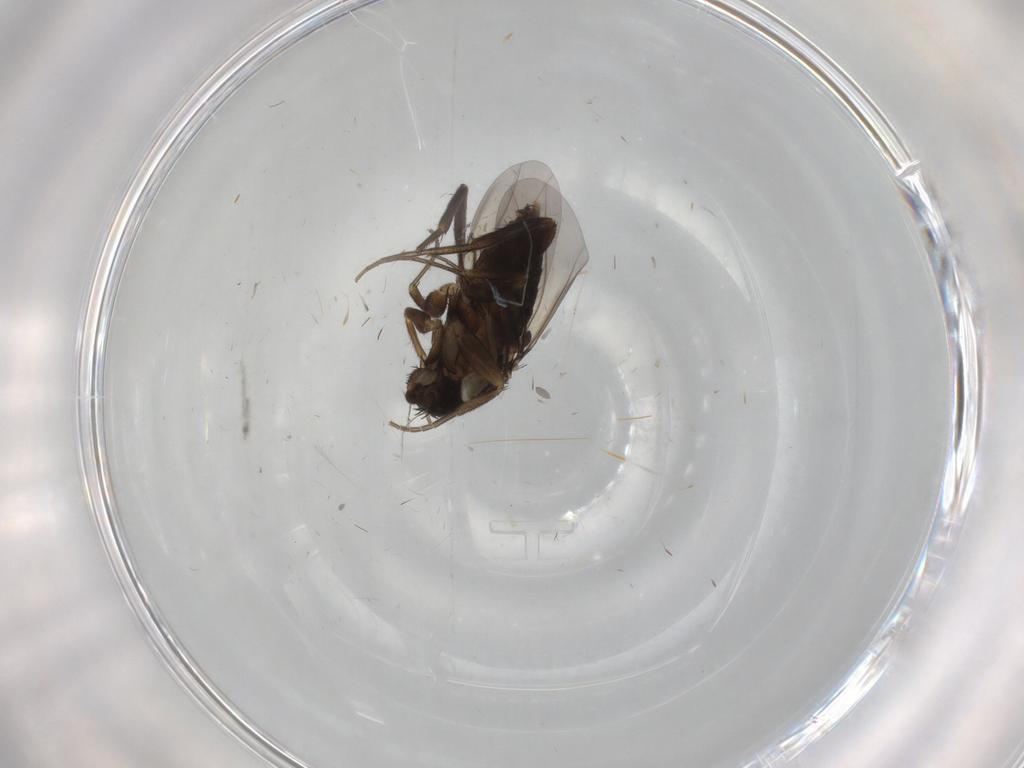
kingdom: Animalia
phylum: Arthropoda
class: Insecta
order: Diptera
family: Phoridae
